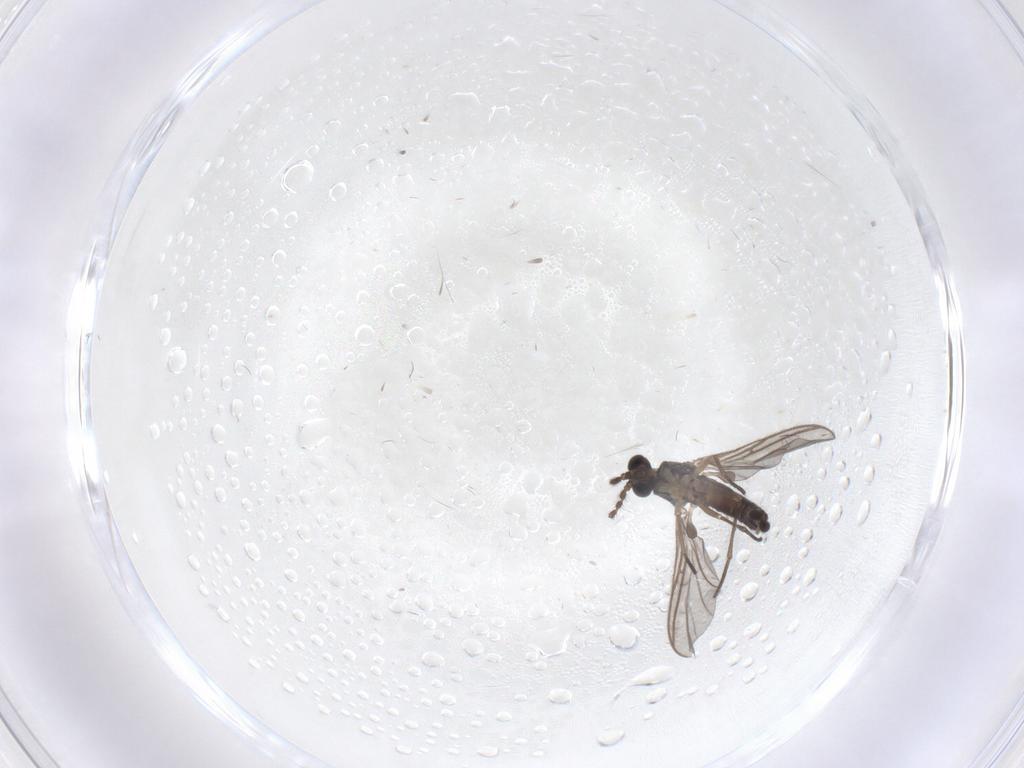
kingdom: Animalia
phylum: Arthropoda
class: Insecta
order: Diptera
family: Sciaridae
